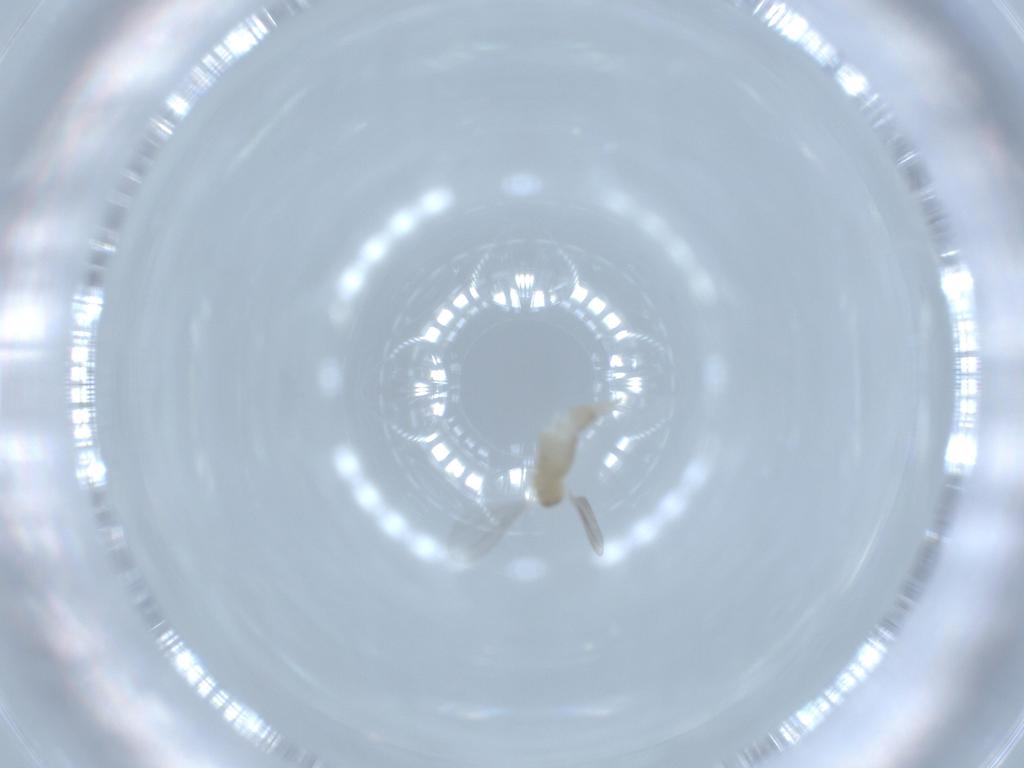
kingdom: Animalia
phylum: Arthropoda
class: Insecta
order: Diptera
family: Cecidomyiidae
